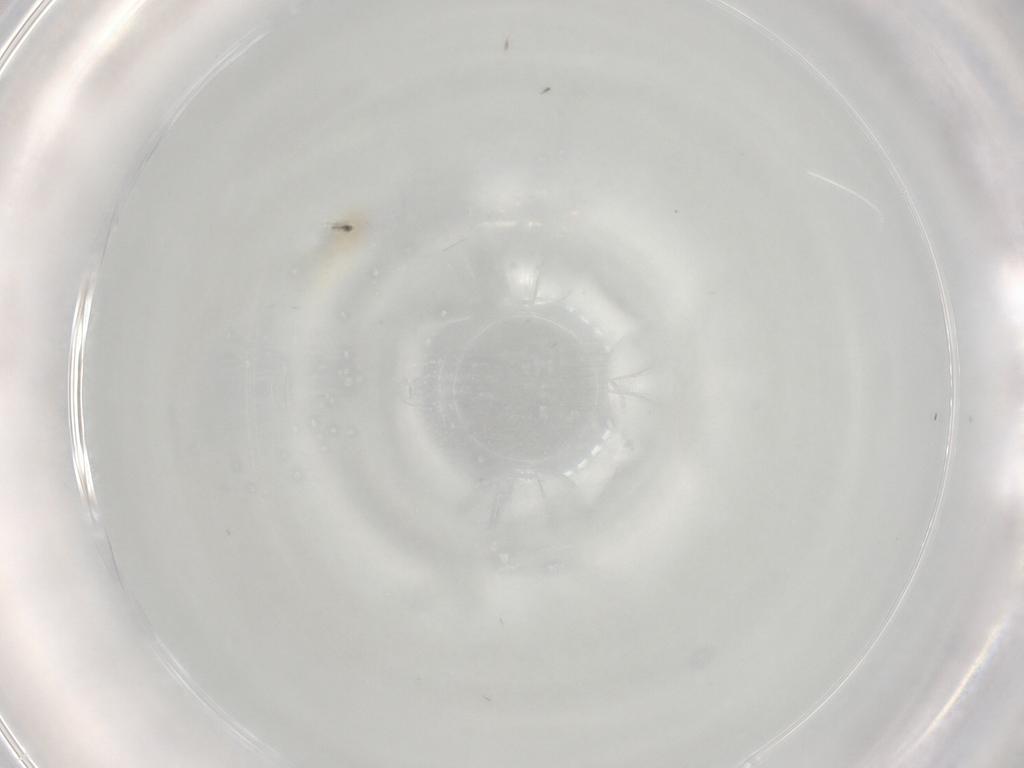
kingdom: Animalia
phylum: Arthropoda
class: Insecta
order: Hemiptera
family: Aleyrodidae
